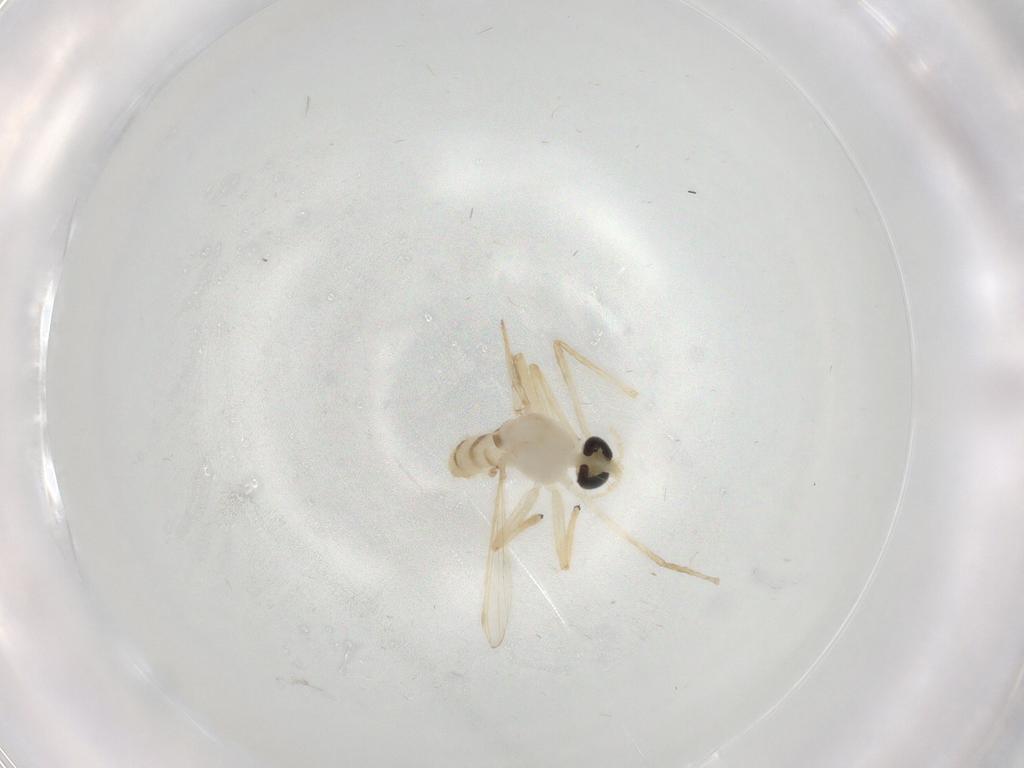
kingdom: Animalia
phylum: Arthropoda
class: Insecta
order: Diptera
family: Chironomidae
